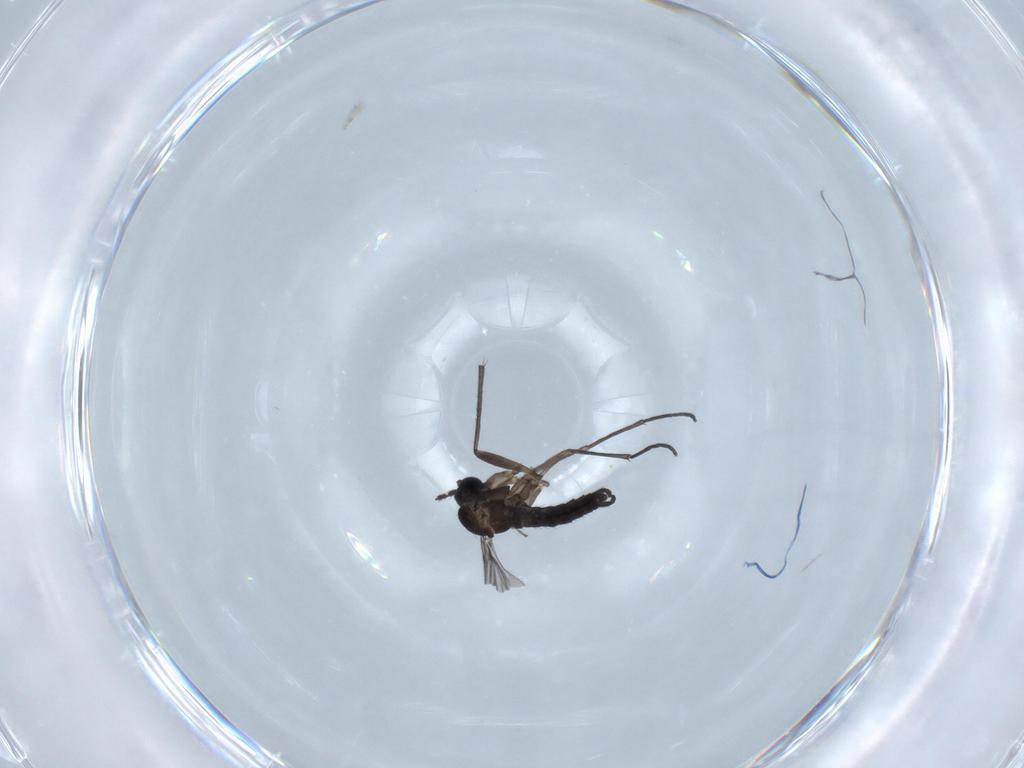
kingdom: Animalia
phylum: Arthropoda
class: Insecta
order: Diptera
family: Sciaridae
